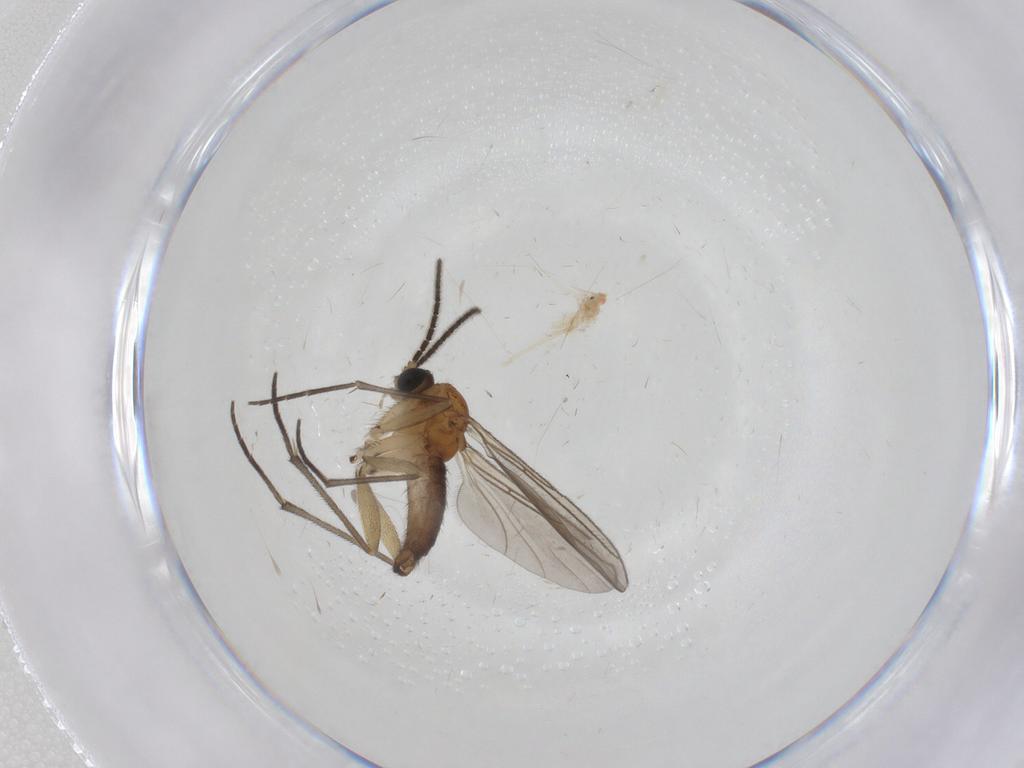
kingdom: Animalia
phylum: Arthropoda
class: Insecta
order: Diptera
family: Sciaridae
